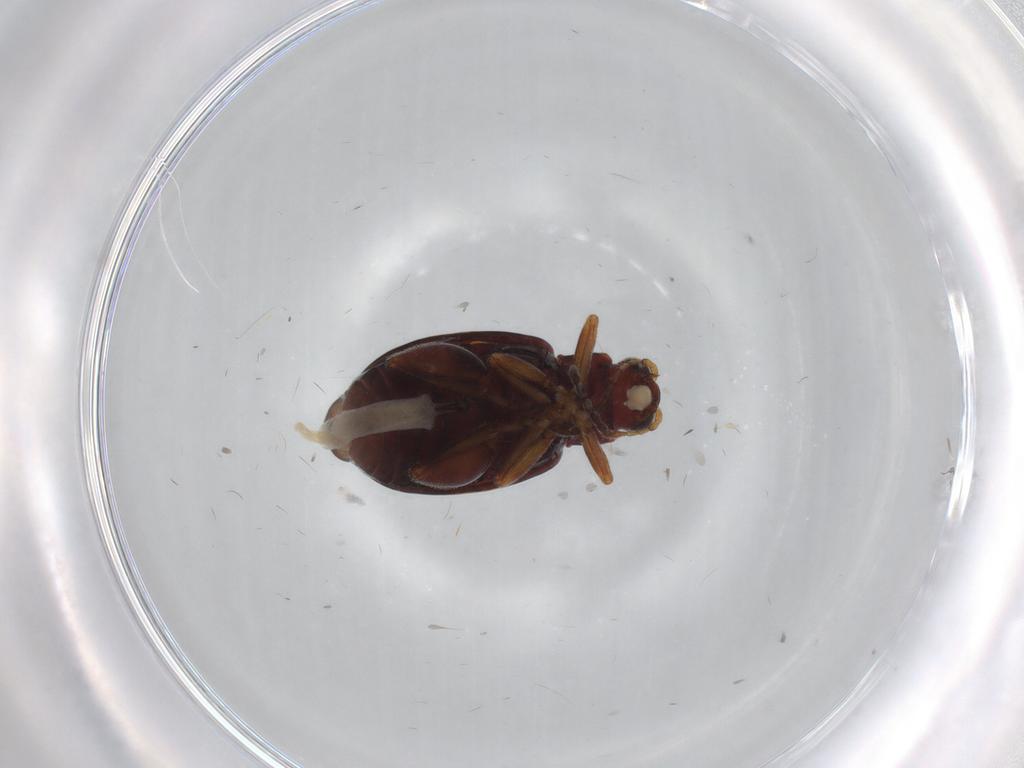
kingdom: Animalia
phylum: Arthropoda
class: Insecta
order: Coleoptera
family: Chrysomelidae
